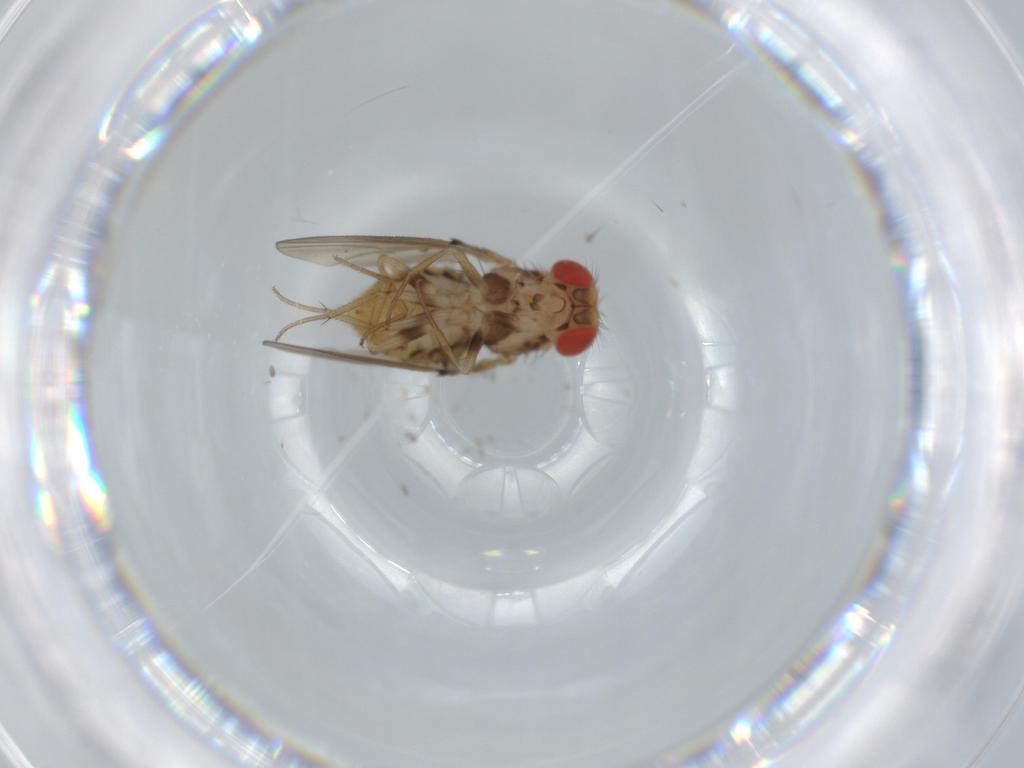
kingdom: Animalia
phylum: Arthropoda
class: Insecta
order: Diptera
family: Drosophilidae
